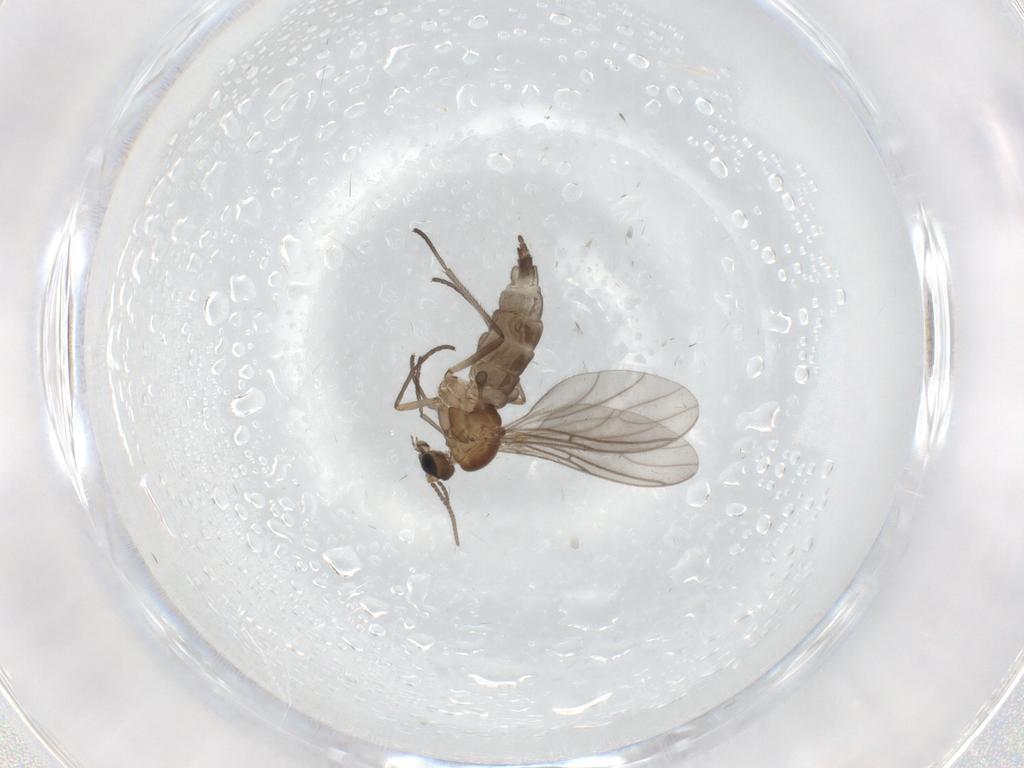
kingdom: Animalia
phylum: Arthropoda
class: Insecta
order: Diptera
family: Sciaridae
